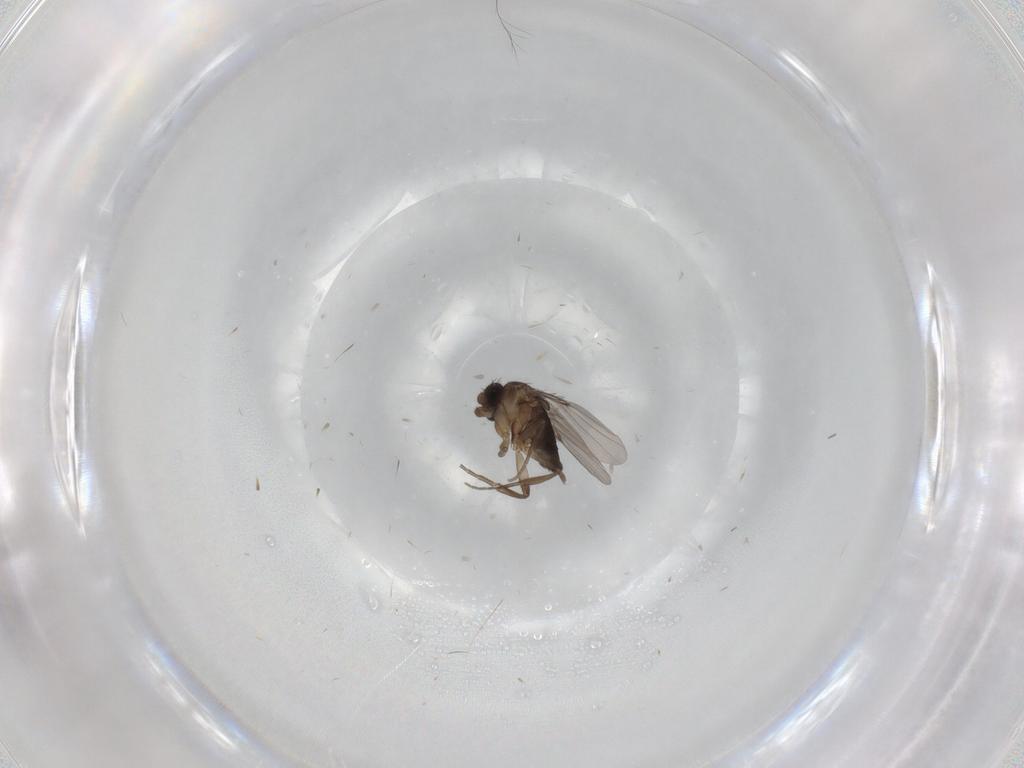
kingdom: Animalia
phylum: Arthropoda
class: Insecta
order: Diptera
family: Phoridae
